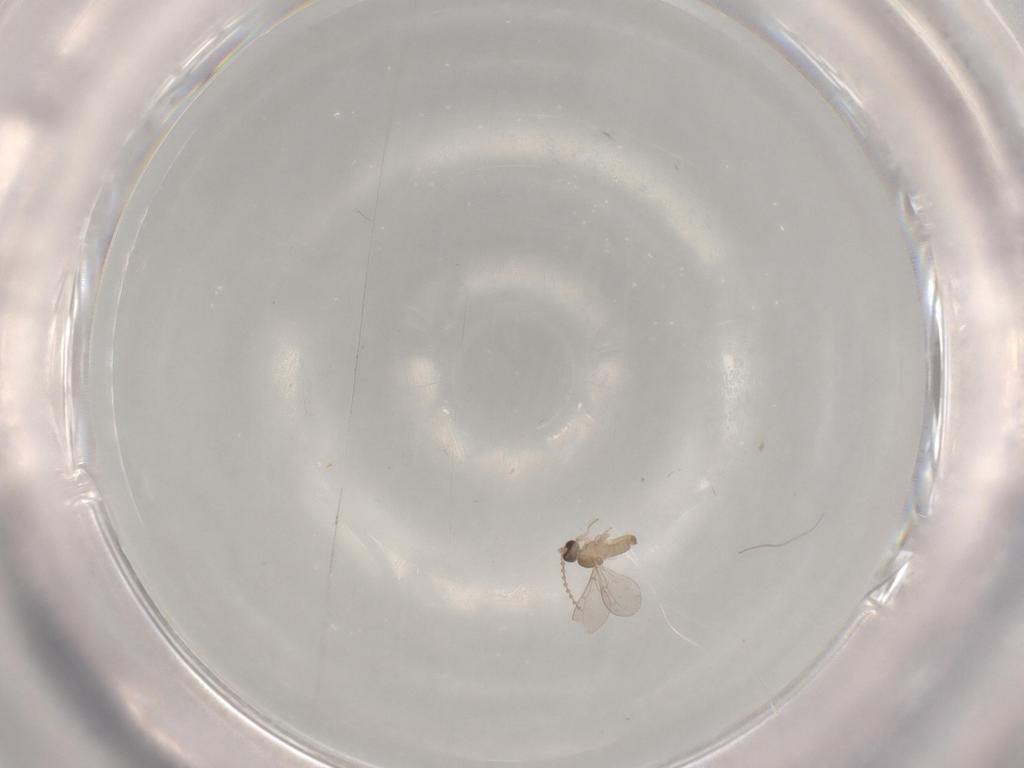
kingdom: Animalia
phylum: Arthropoda
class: Insecta
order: Diptera
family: Cecidomyiidae
